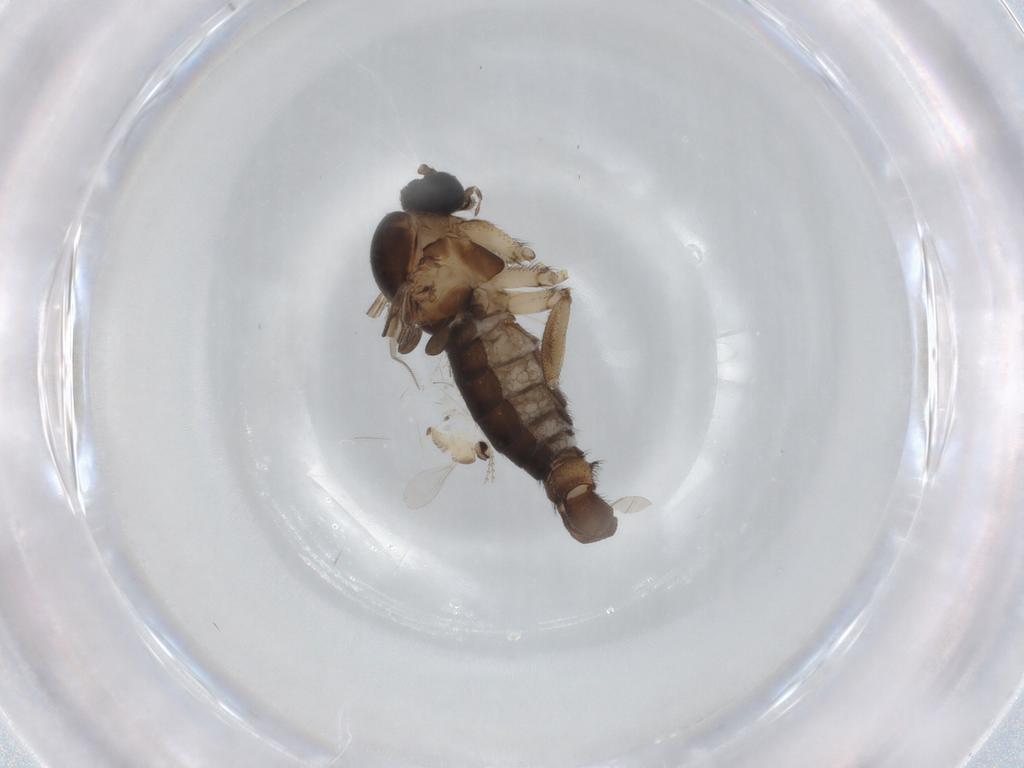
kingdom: Animalia
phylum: Arthropoda
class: Insecta
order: Diptera
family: Sciaridae
